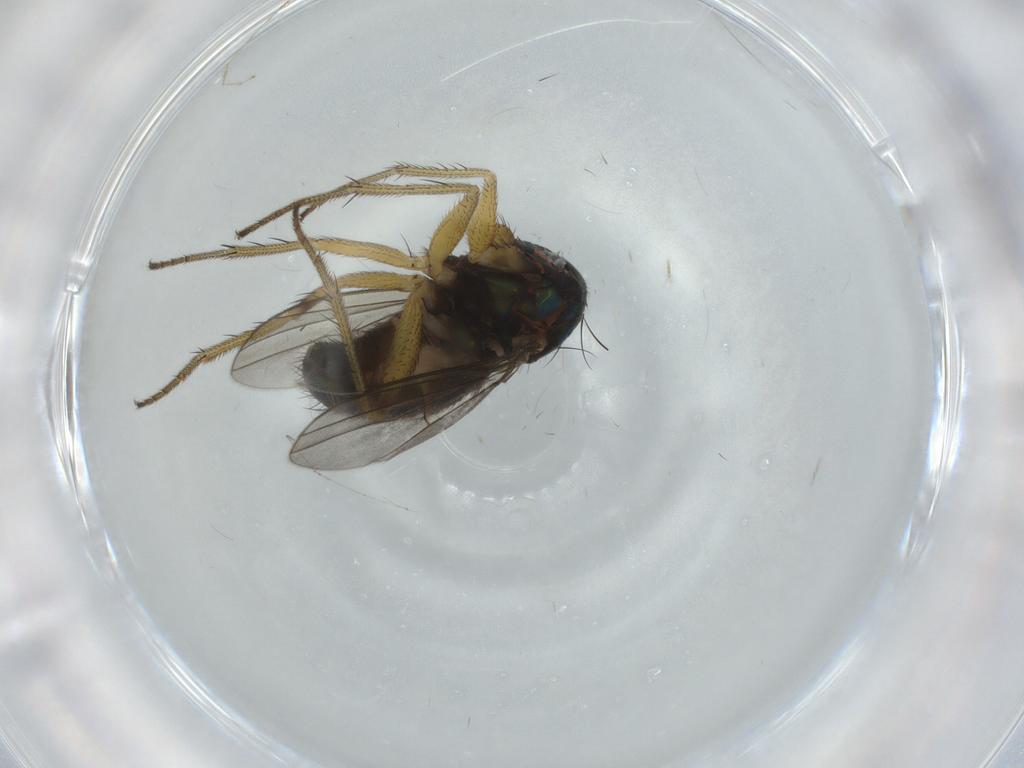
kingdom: Animalia
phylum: Arthropoda
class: Insecta
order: Diptera
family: Dolichopodidae
